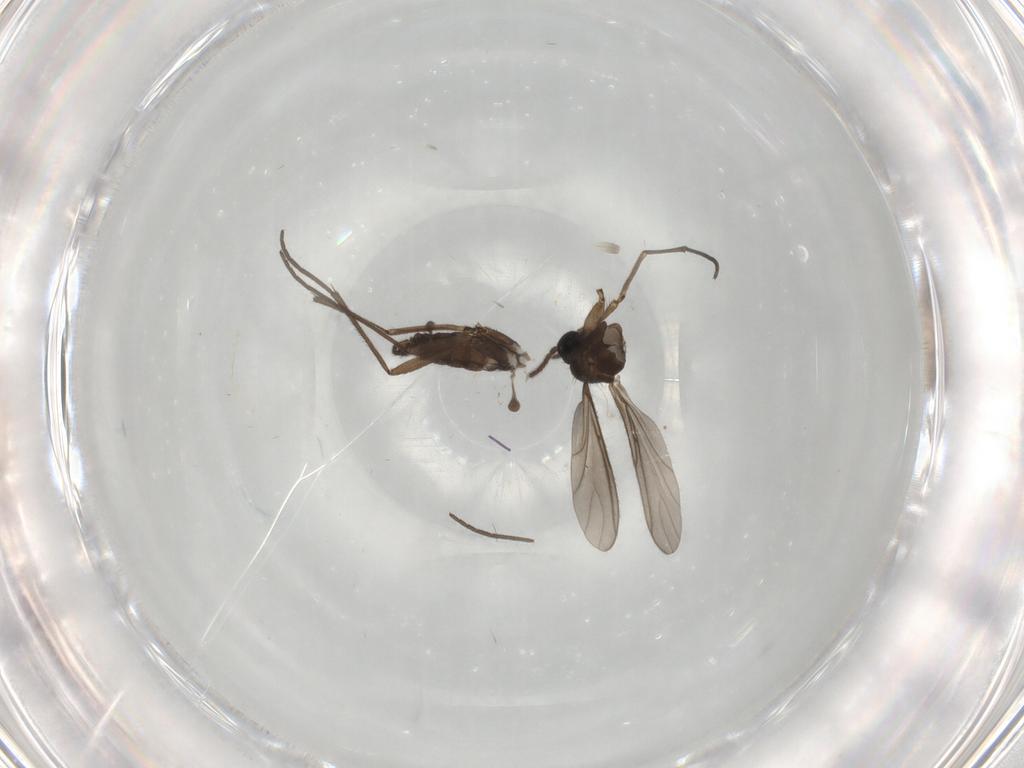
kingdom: Animalia
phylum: Arthropoda
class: Insecta
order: Diptera
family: Sciaridae
